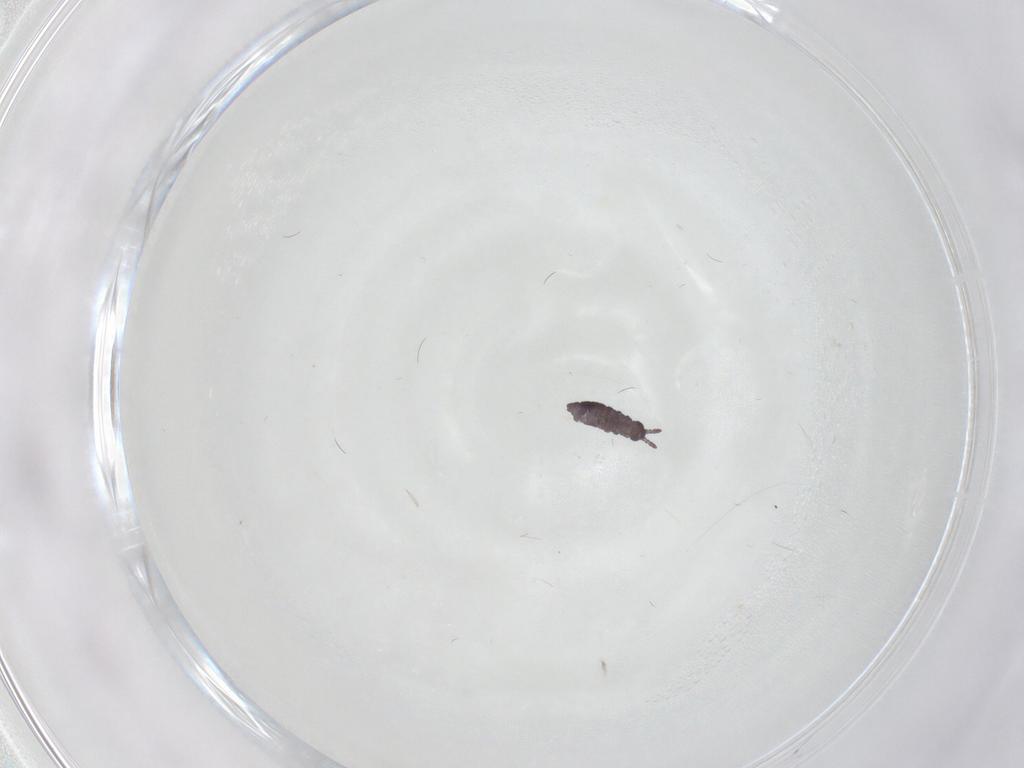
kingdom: Animalia
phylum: Arthropoda
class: Collembola
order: Poduromorpha
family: Hypogastruridae
